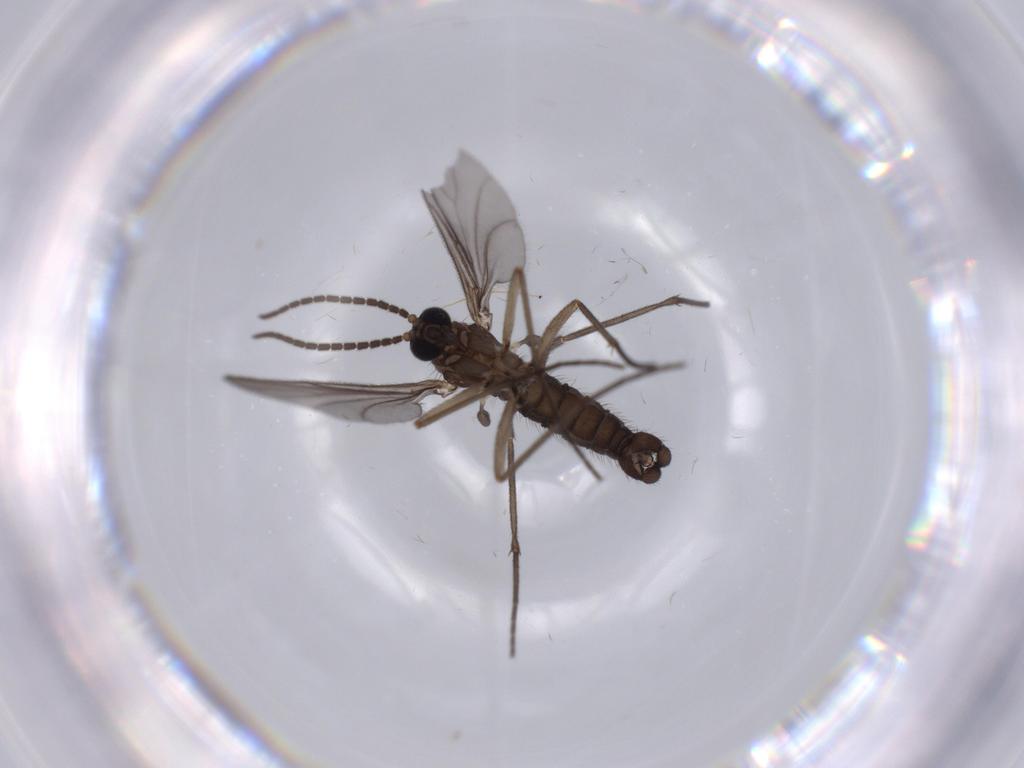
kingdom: Animalia
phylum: Arthropoda
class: Insecta
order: Diptera
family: Sciaridae
